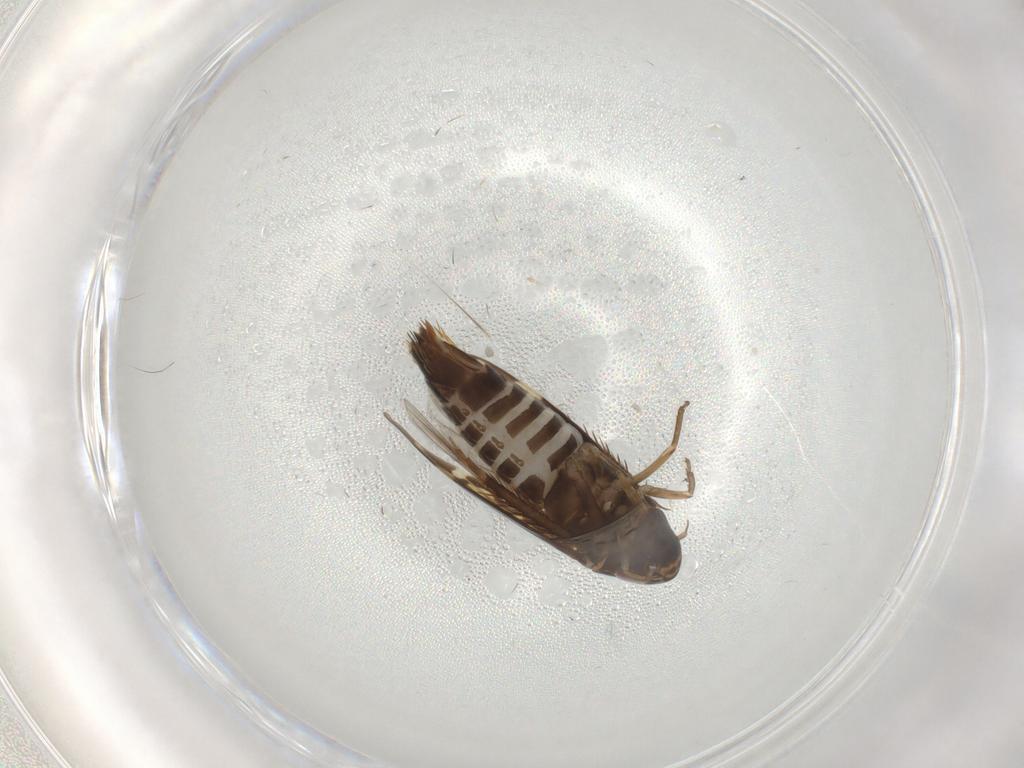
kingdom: Animalia
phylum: Arthropoda
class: Insecta
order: Hemiptera
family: Cicadellidae
